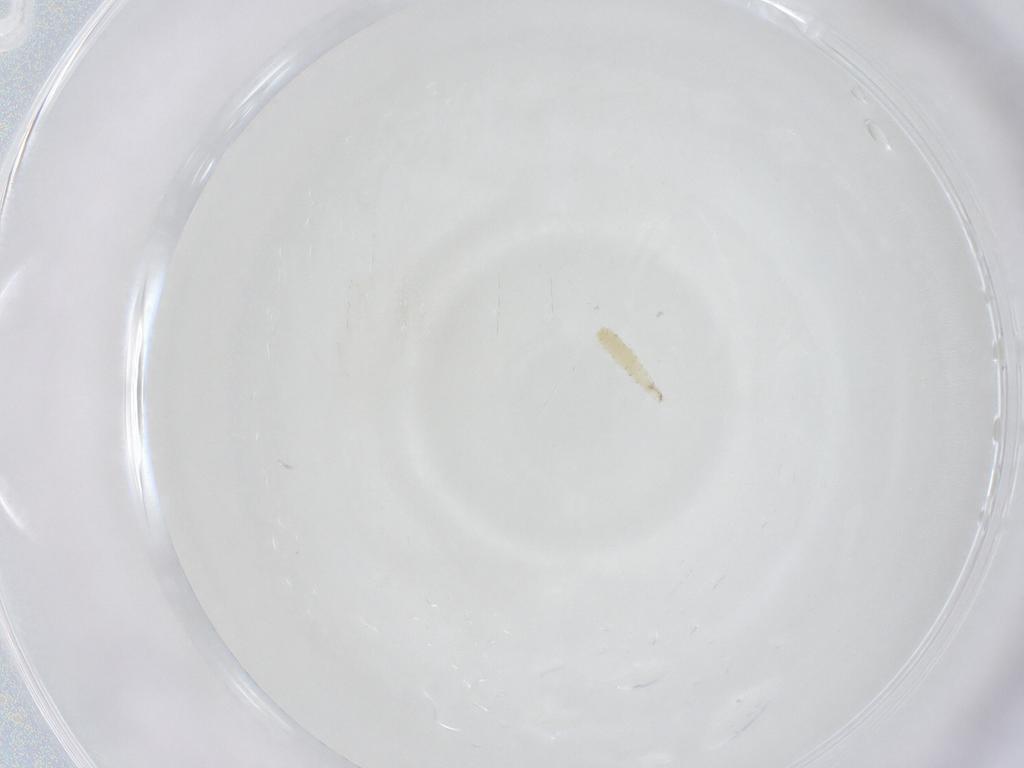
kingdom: Animalia
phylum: Arthropoda
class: Insecta
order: Diptera
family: Sarcophagidae
